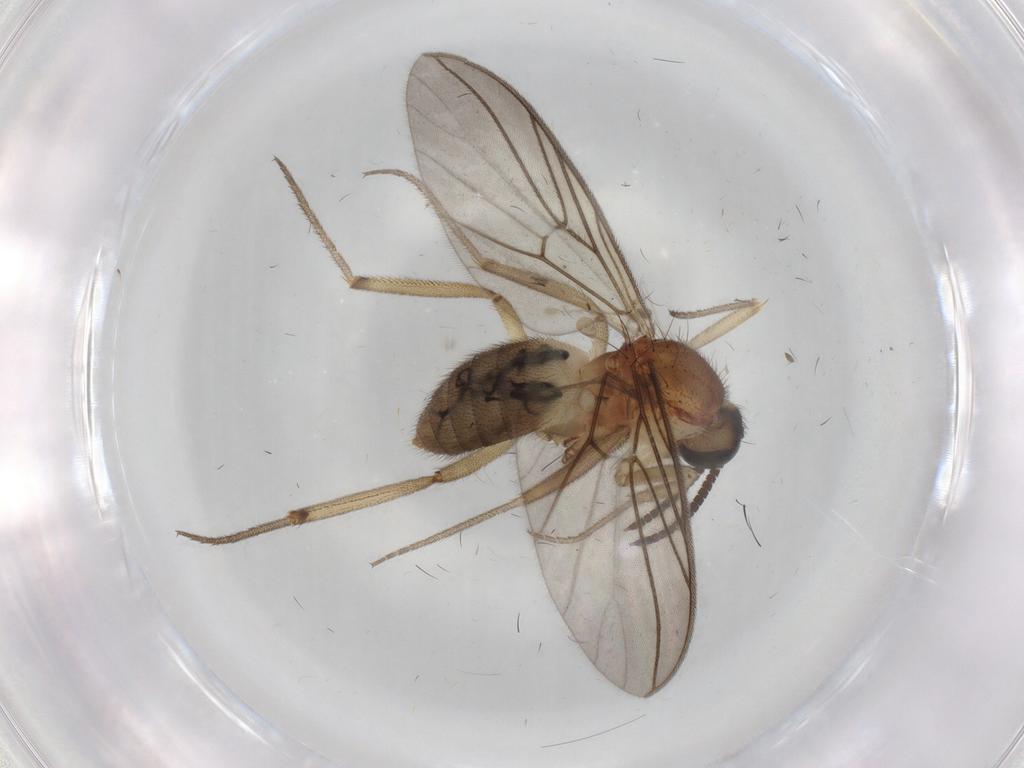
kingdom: Animalia
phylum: Arthropoda
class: Insecta
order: Diptera
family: Anisopodidae
